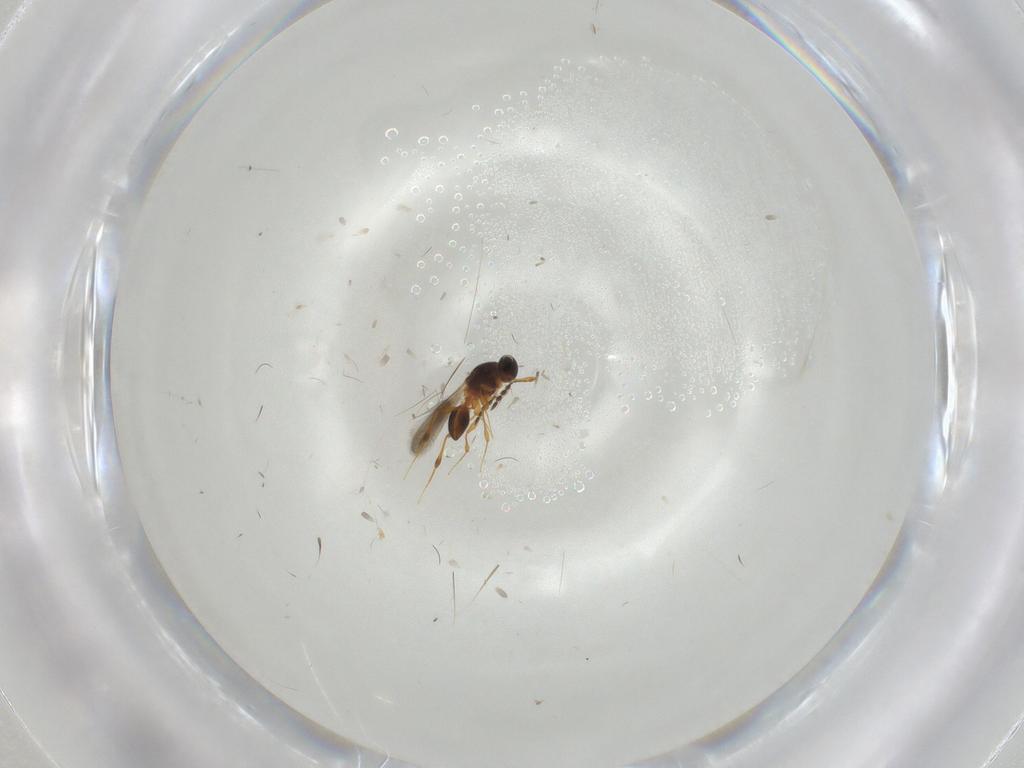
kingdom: Animalia
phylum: Arthropoda
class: Insecta
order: Hymenoptera
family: Platygastridae
